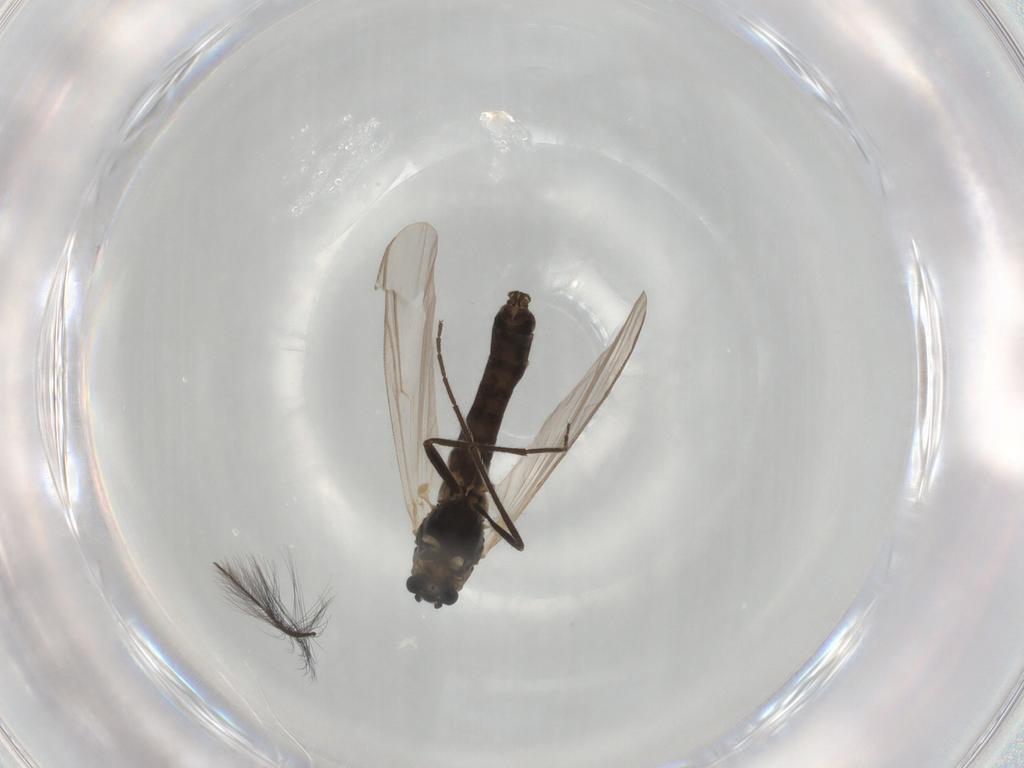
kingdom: Animalia
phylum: Arthropoda
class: Insecta
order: Diptera
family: Chironomidae
